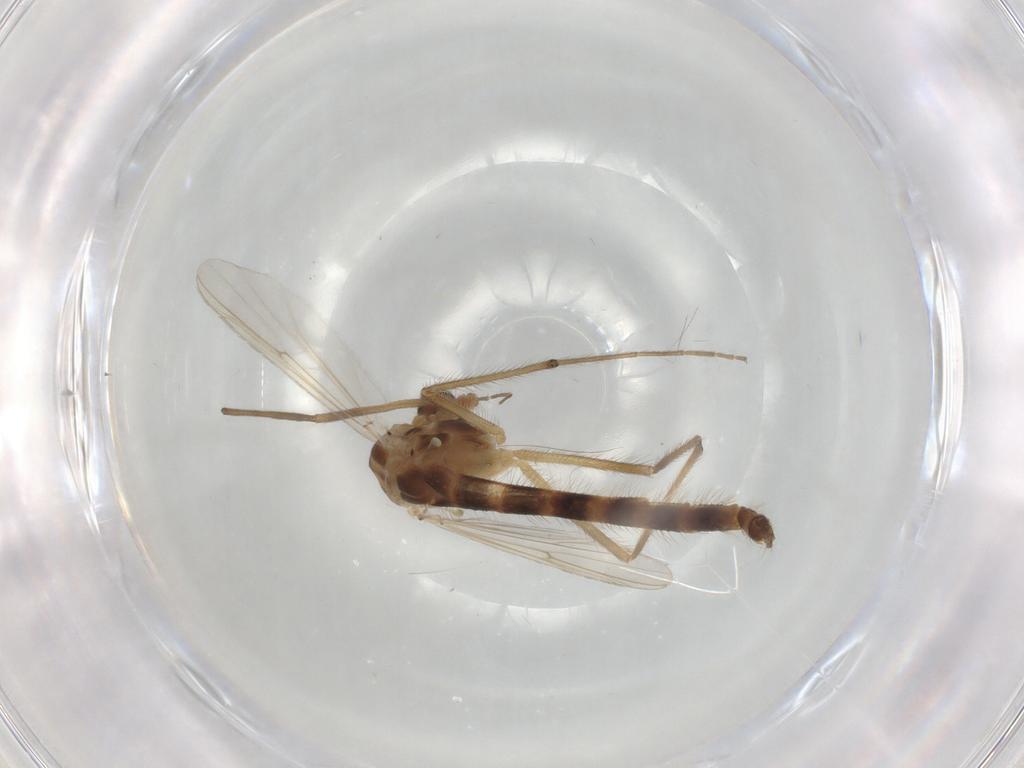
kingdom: Animalia
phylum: Arthropoda
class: Insecta
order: Diptera
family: Chironomidae
